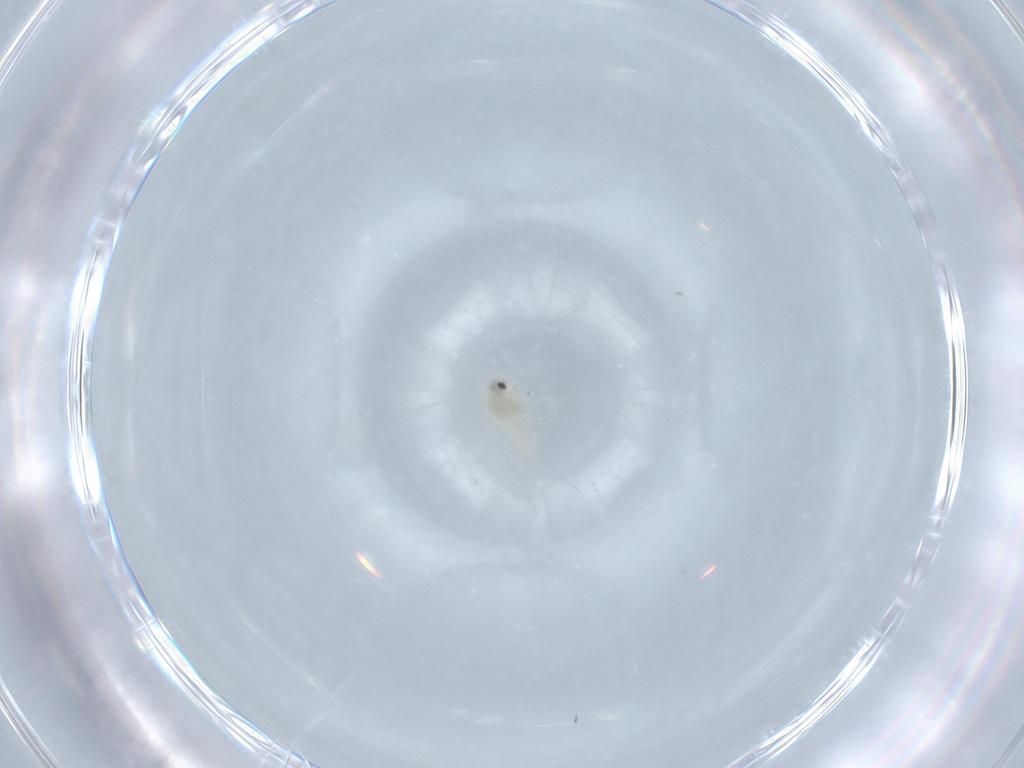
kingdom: Animalia
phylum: Arthropoda
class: Insecta
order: Hemiptera
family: Aleyrodidae
